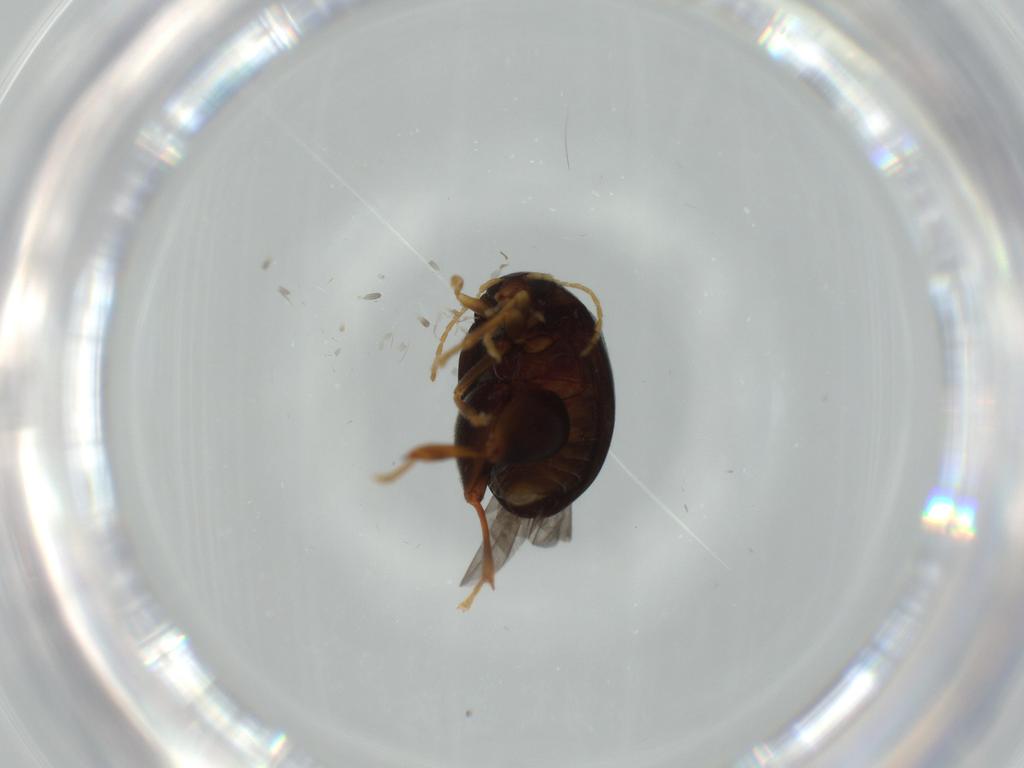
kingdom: Animalia
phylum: Arthropoda
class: Insecta
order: Coleoptera
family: Chrysomelidae
